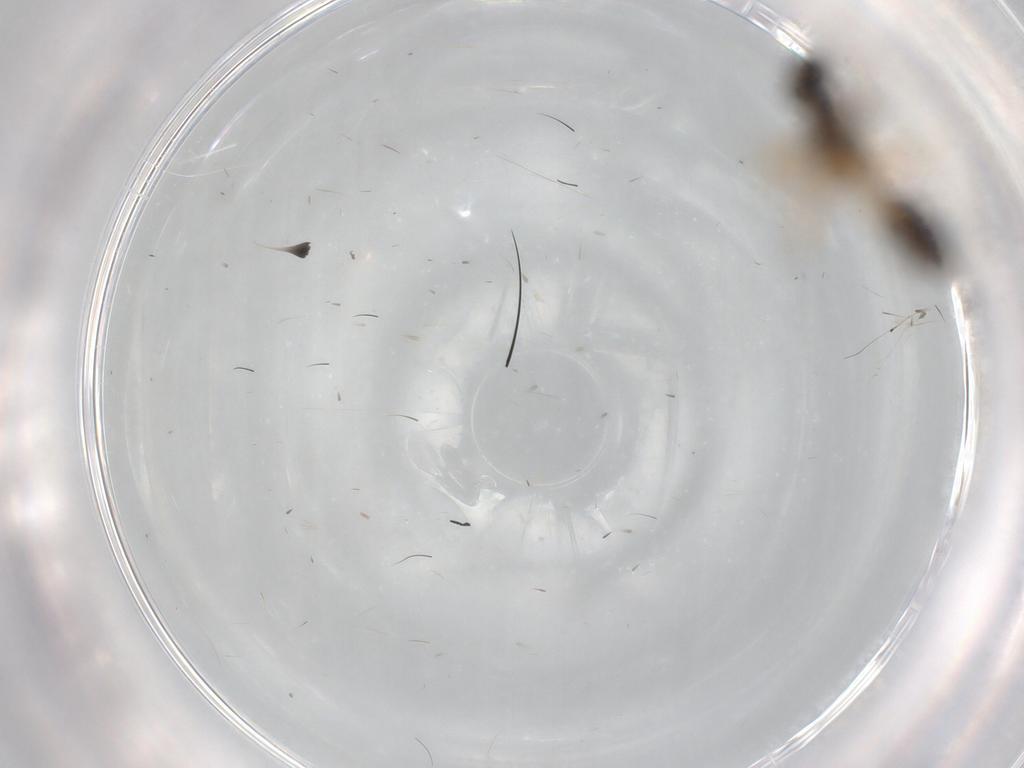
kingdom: Animalia
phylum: Arthropoda
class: Insecta
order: Hymenoptera
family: Braconidae
